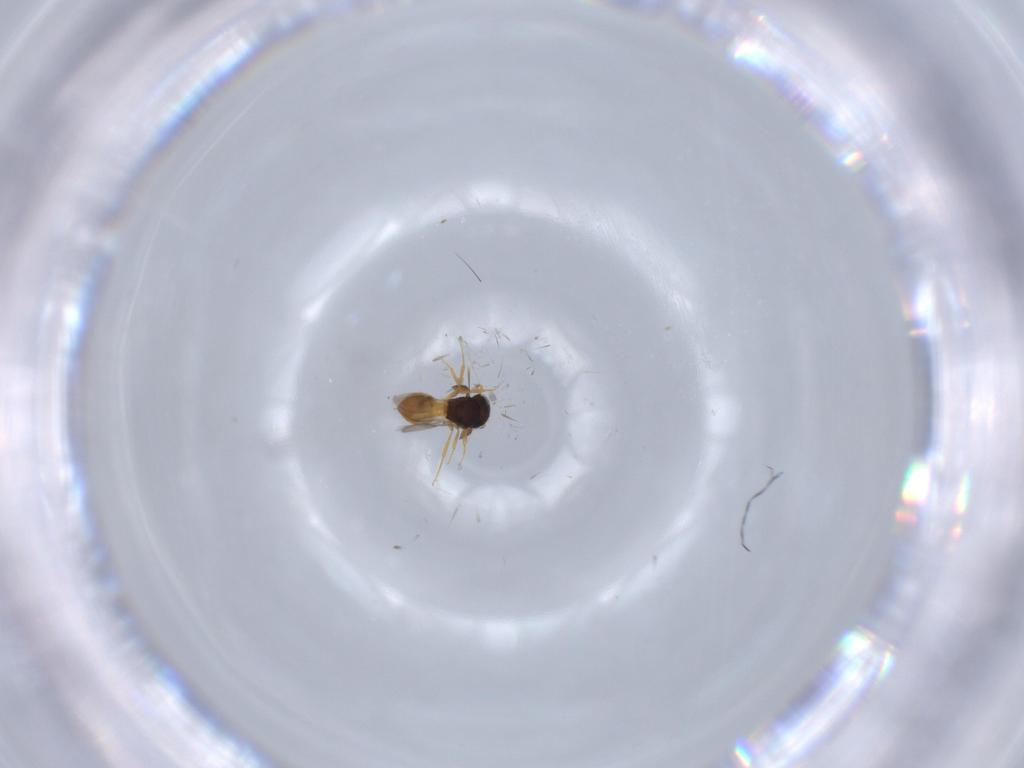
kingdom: Animalia
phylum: Arthropoda
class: Insecta
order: Hymenoptera
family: Scelionidae
